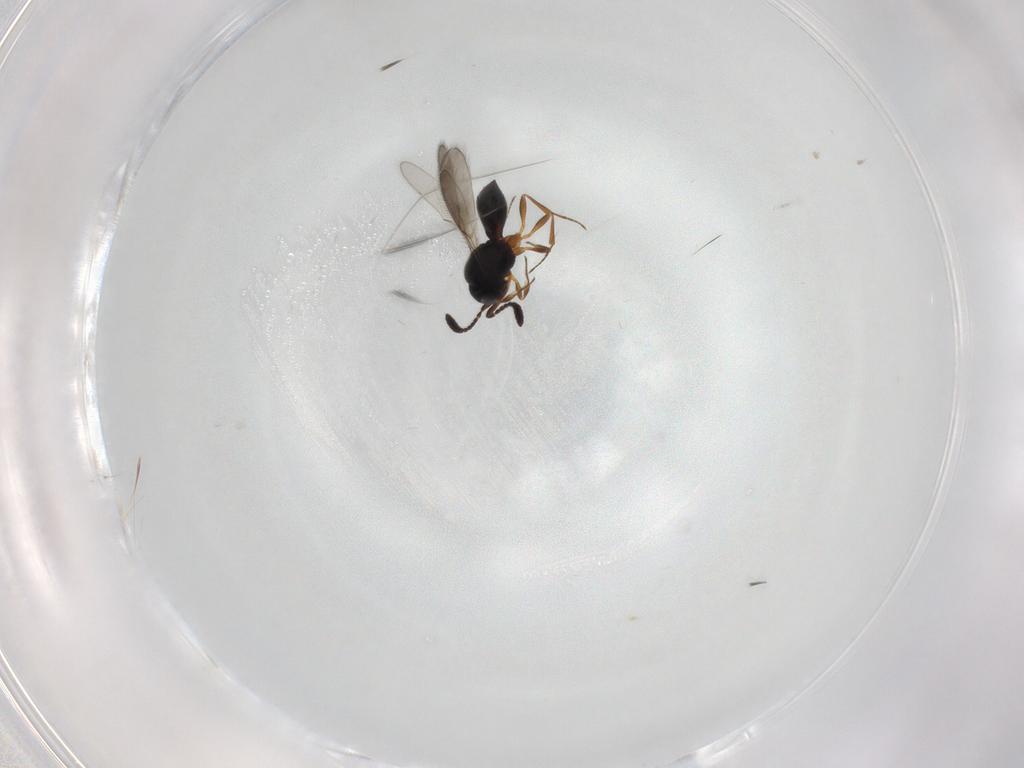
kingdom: Animalia
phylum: Arthropoda
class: Insecta
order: Hymenoptera
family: Scelionidae
